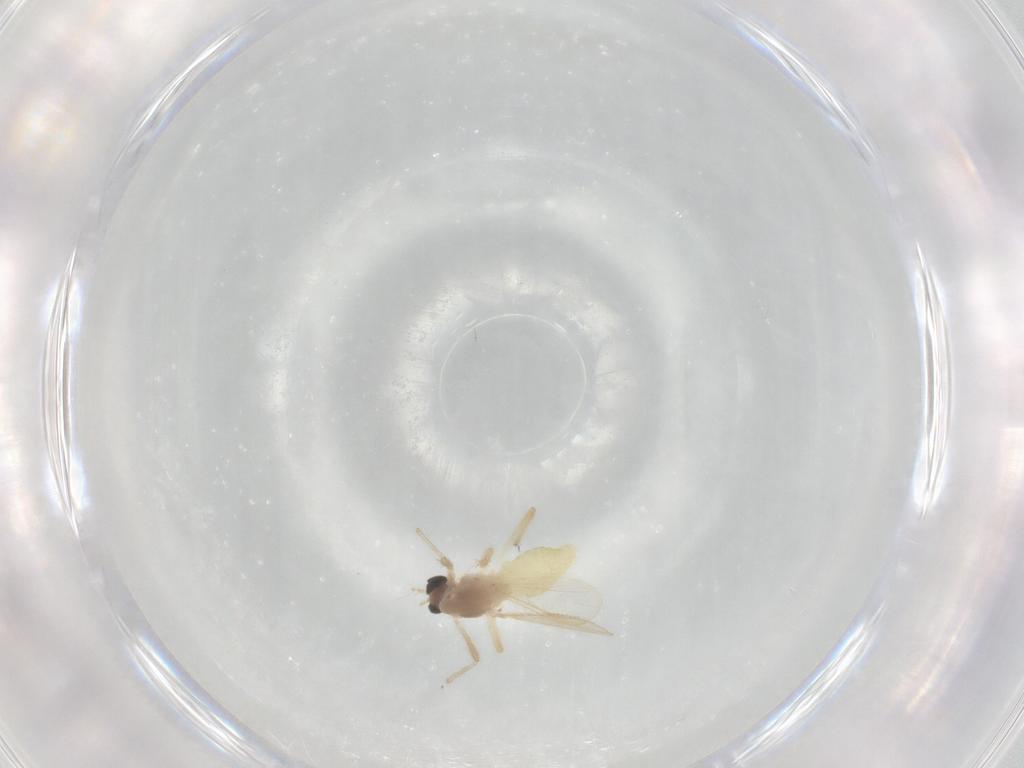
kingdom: Animalia
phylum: Arthropoda
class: Insecta
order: Diptera
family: Chironomidae
